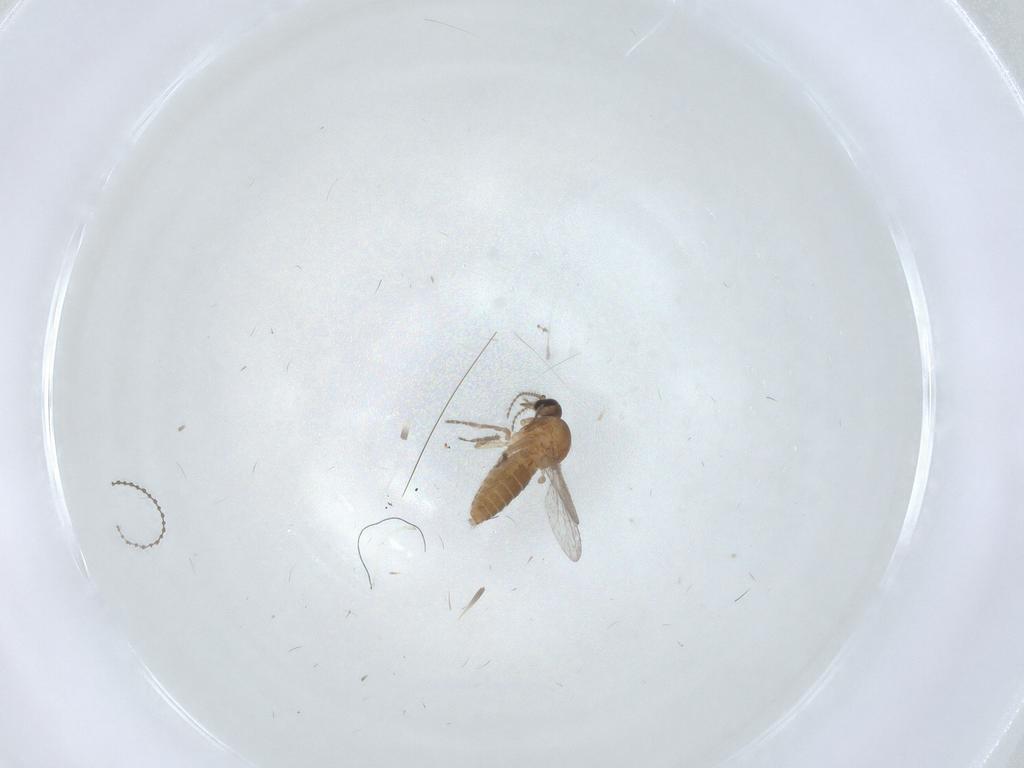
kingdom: Animalia
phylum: Arthropoda
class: Insecta
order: Diptera
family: Ceratopogonidae
